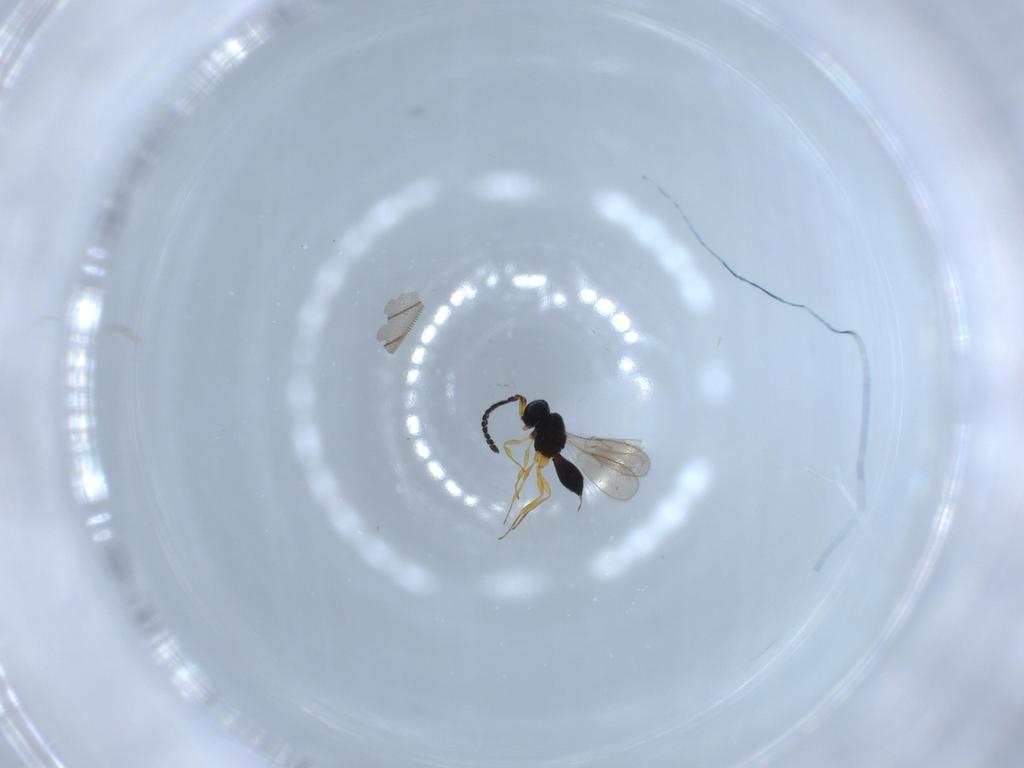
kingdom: Animalia
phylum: Arthropoda
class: Insecta
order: Hymenoptera
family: Scelionidae
